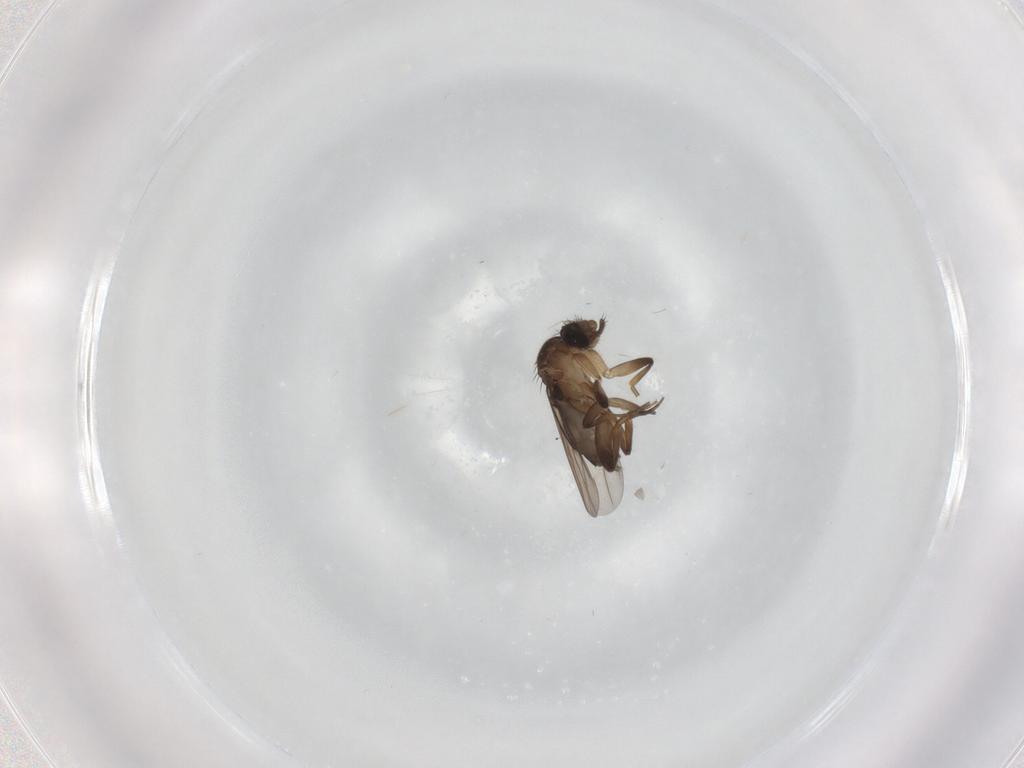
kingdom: Animalia
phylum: Arthropoda
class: Insecta
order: Diptera
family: Phoridae
